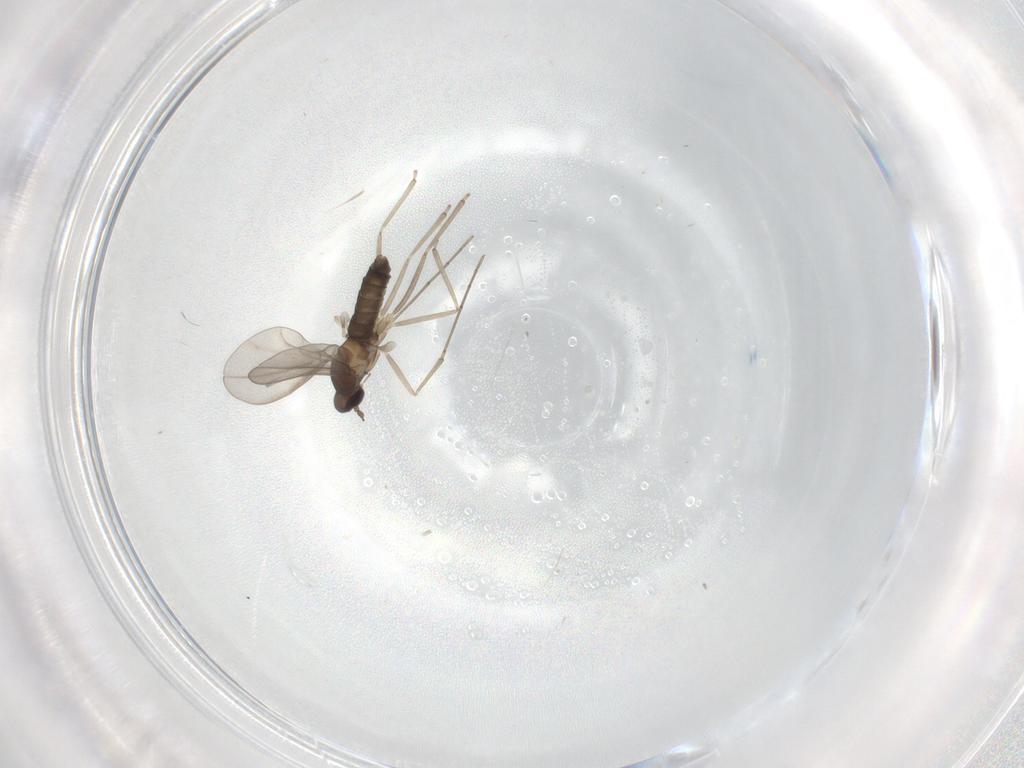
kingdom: Animalia
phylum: Arthropoda
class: Insecta
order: Diptera
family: Cecidomyiidae
